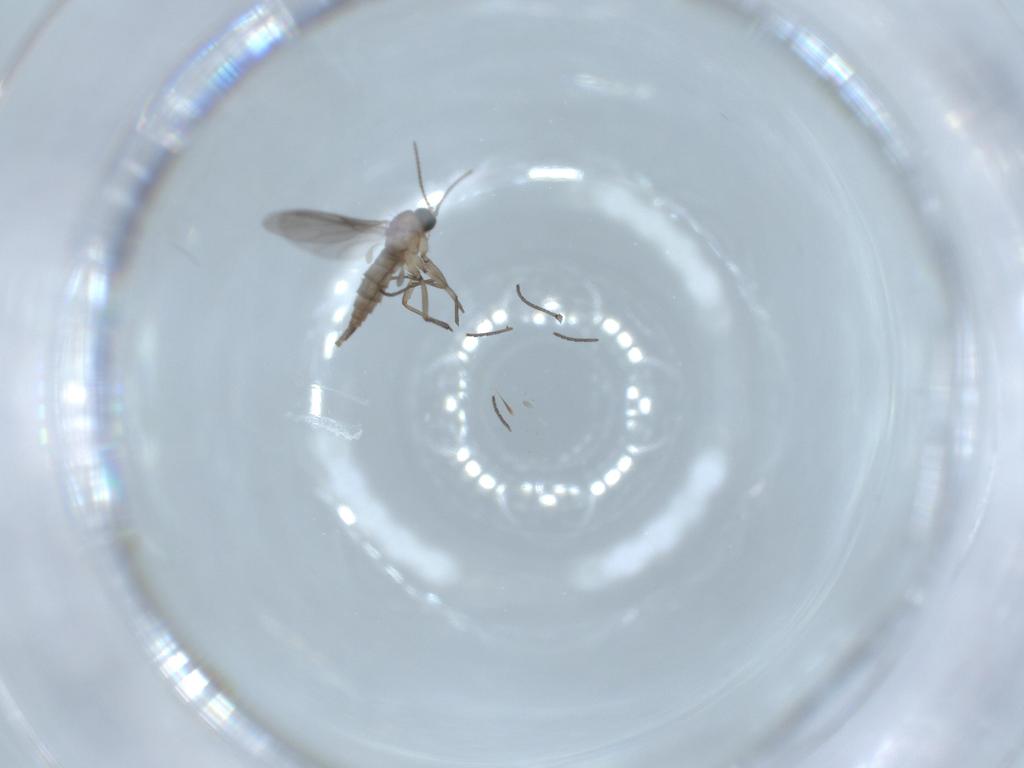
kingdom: Animalia
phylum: Arthropoda
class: Insecta
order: Diptera
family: Sciaridae
